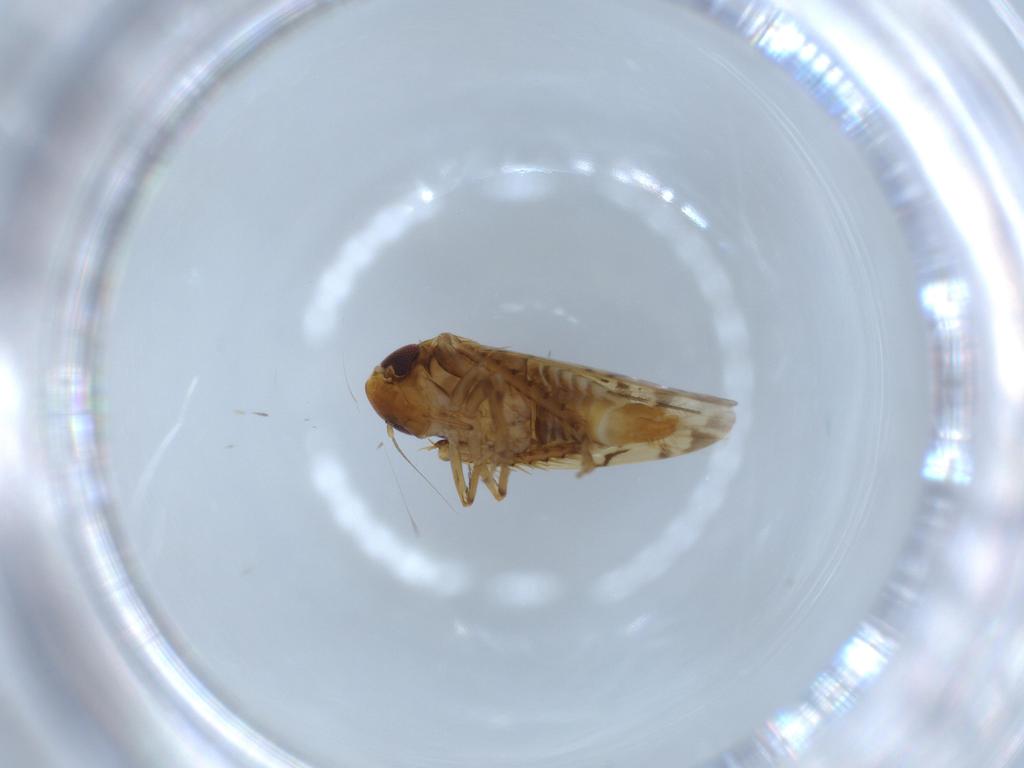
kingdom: Animalia
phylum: Arthropoda
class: Insecta
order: Hemiptera
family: Cicadellidae
